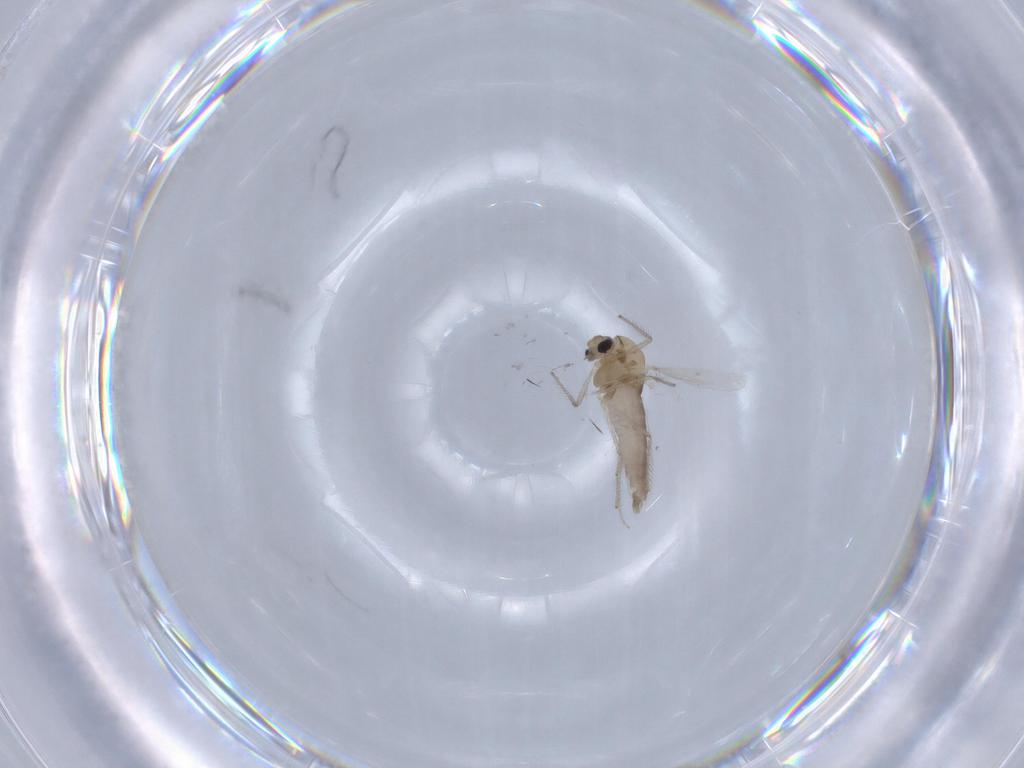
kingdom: Animalia
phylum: Arthropoda
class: Insecta
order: Diptera
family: Chironomidae
